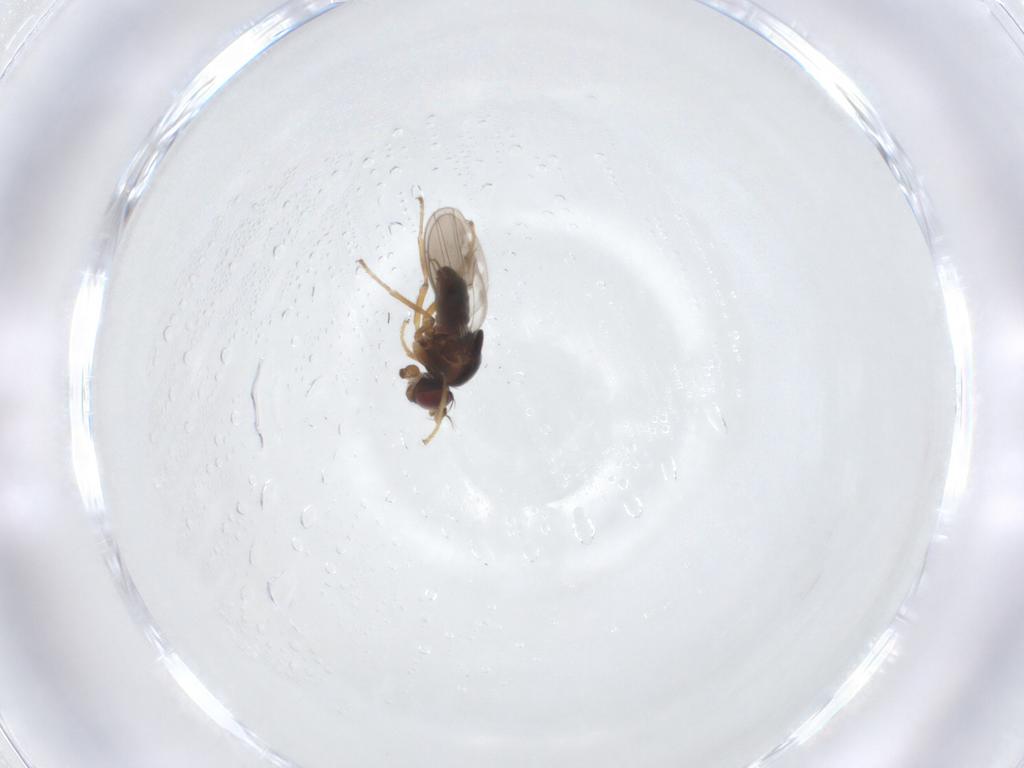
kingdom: Animalia
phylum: Arthropoda
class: Insecta
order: Diptera
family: Ephydridae
